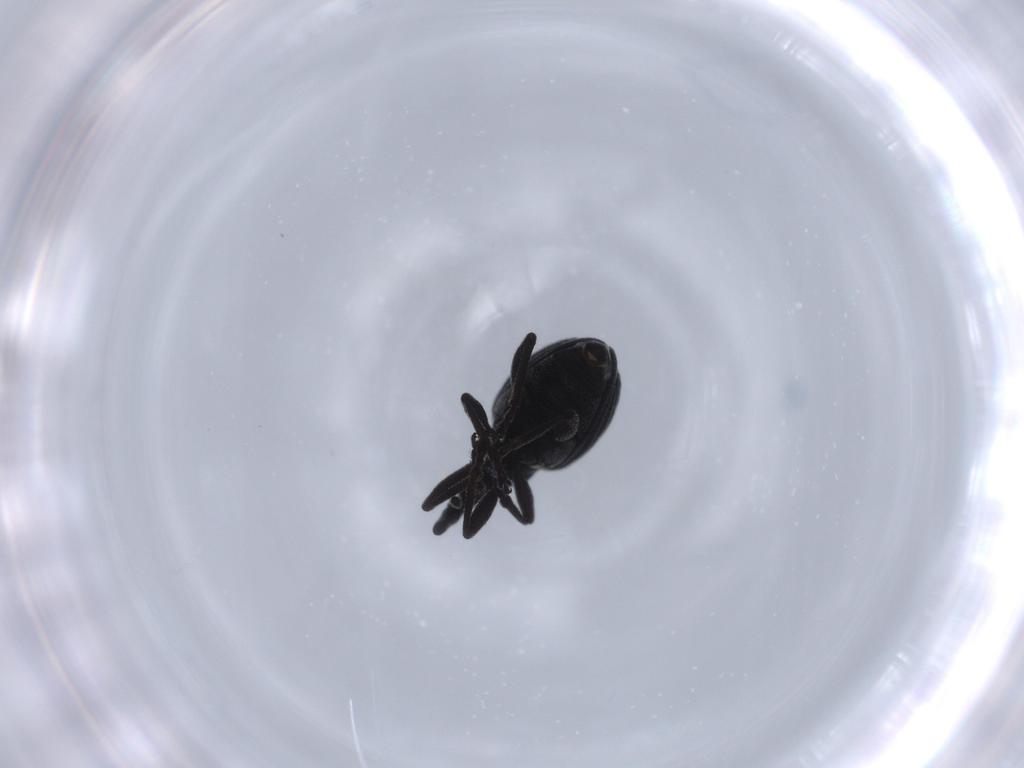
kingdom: Animalia
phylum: Arthropoda
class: Insecta
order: Coleoptera
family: Brentidae
